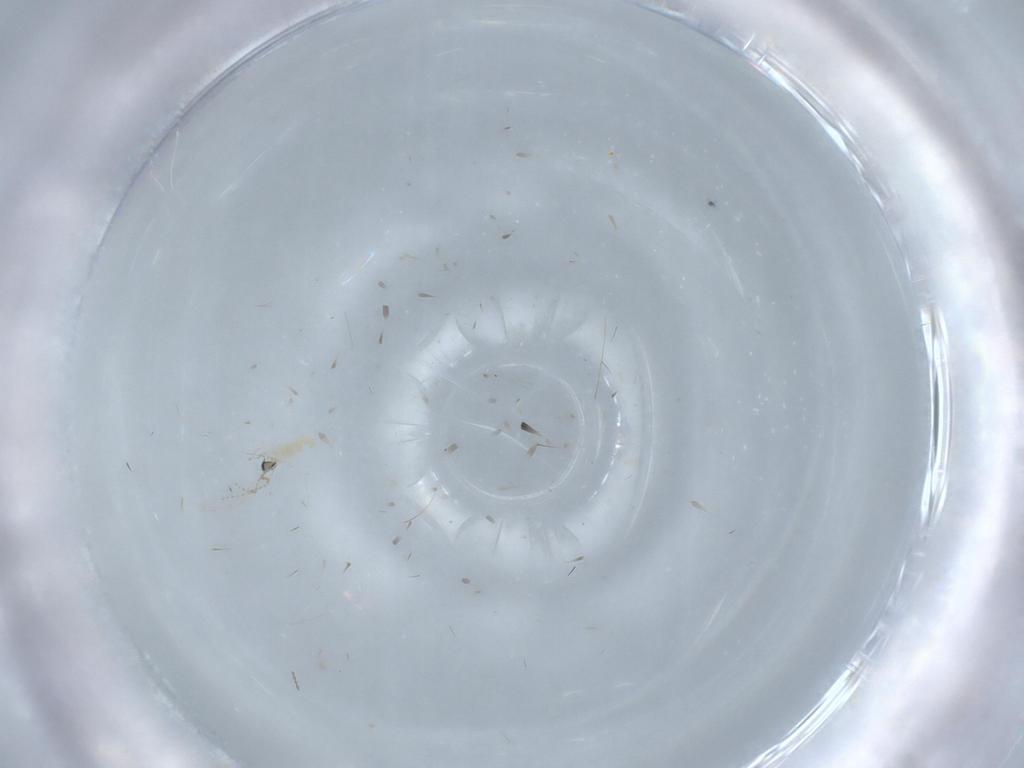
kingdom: Animalia
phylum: Arthropoda
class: Insecta
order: Diptera
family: Cecidomyiidae
